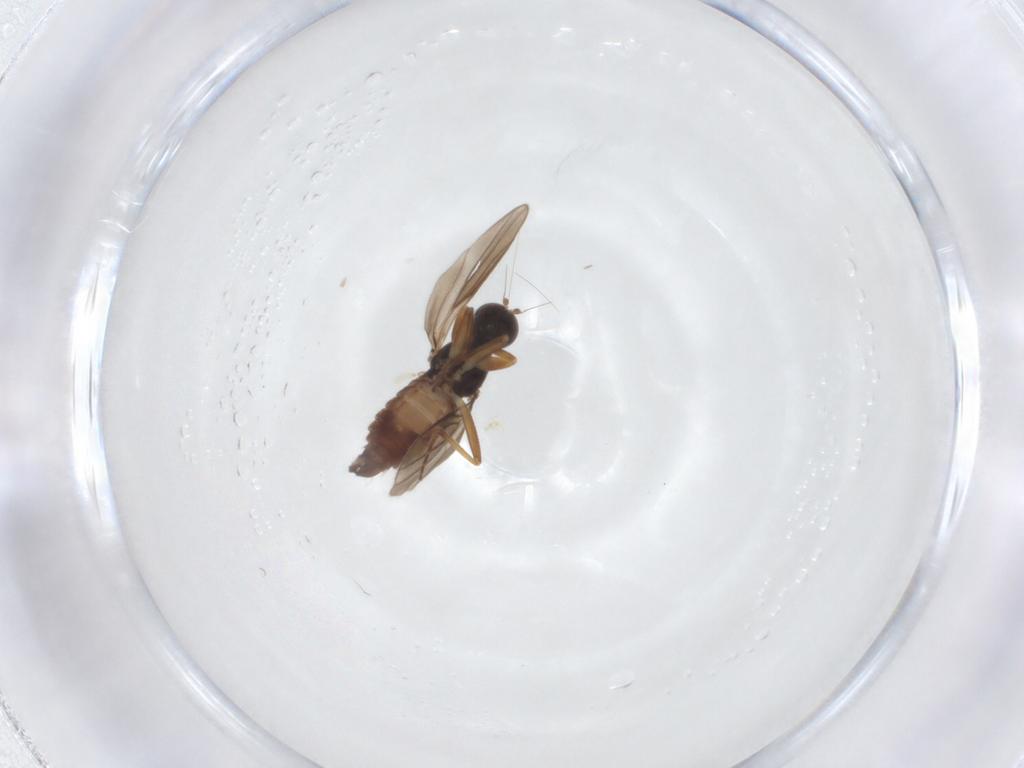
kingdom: Animalia
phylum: Arthropoda
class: Insecta
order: Diptera
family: Hybotidae
